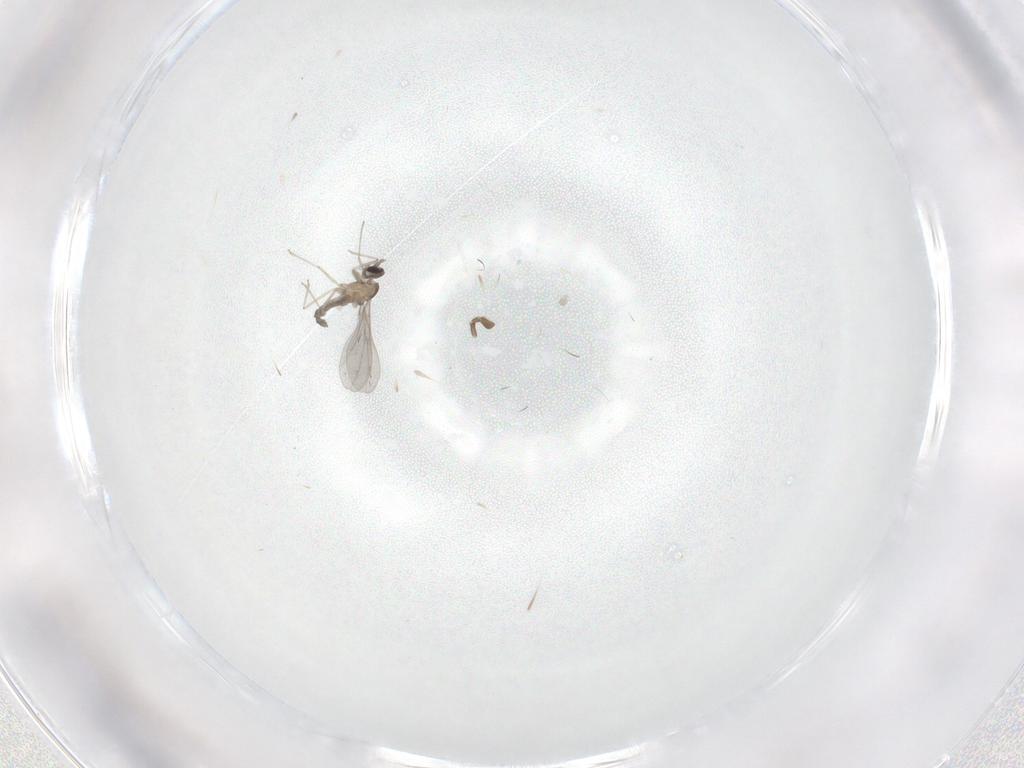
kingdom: Animalia
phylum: Arthropoda
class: Insecta
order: Diptera
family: Cecidomyiidae
